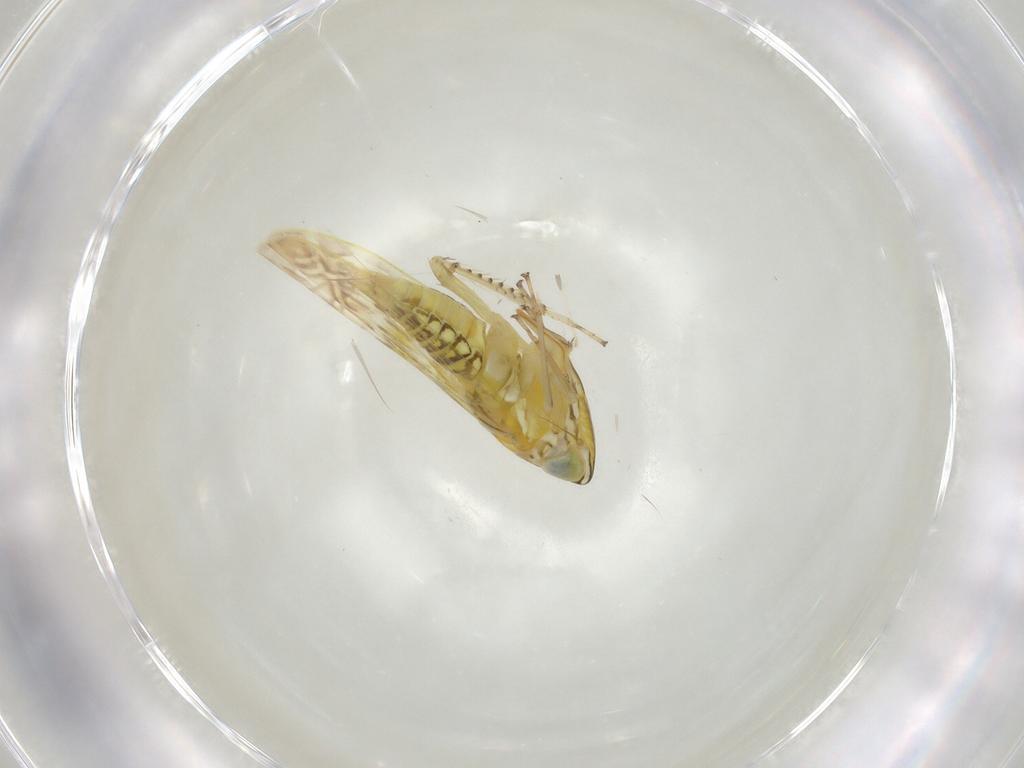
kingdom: Animalia
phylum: Arthropoda
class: Insecta
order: Hemiptera
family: Cicadellidae
